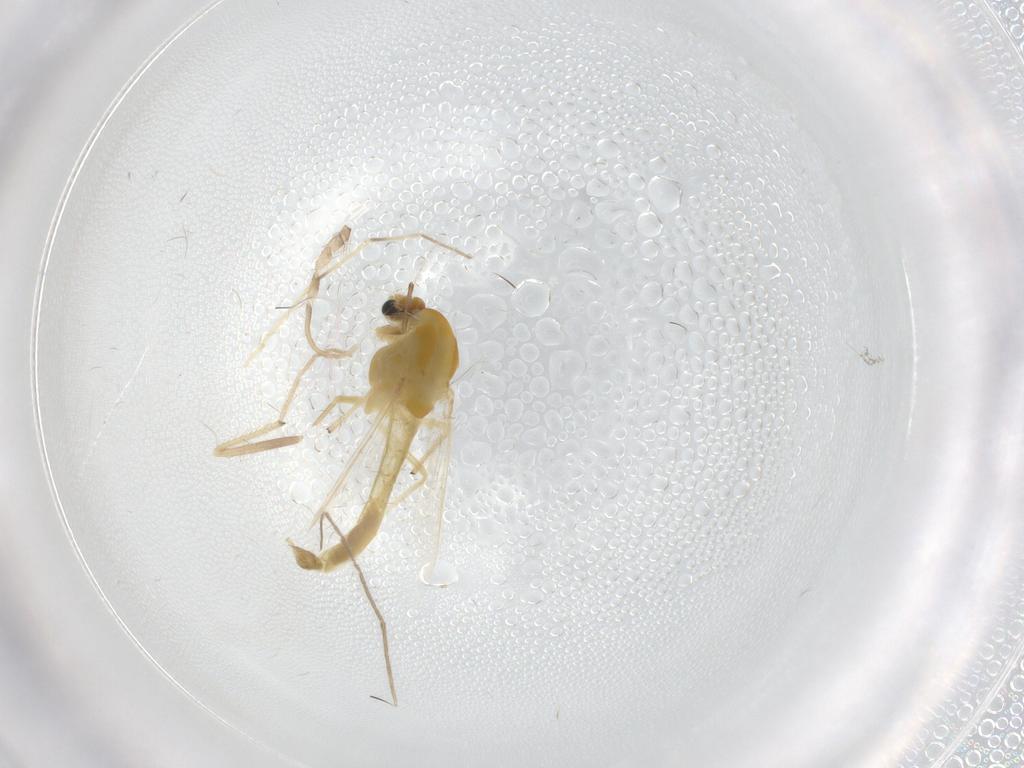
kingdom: Animalia
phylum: Arthropoda
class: Insecta
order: Diptera
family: Chironomidae
